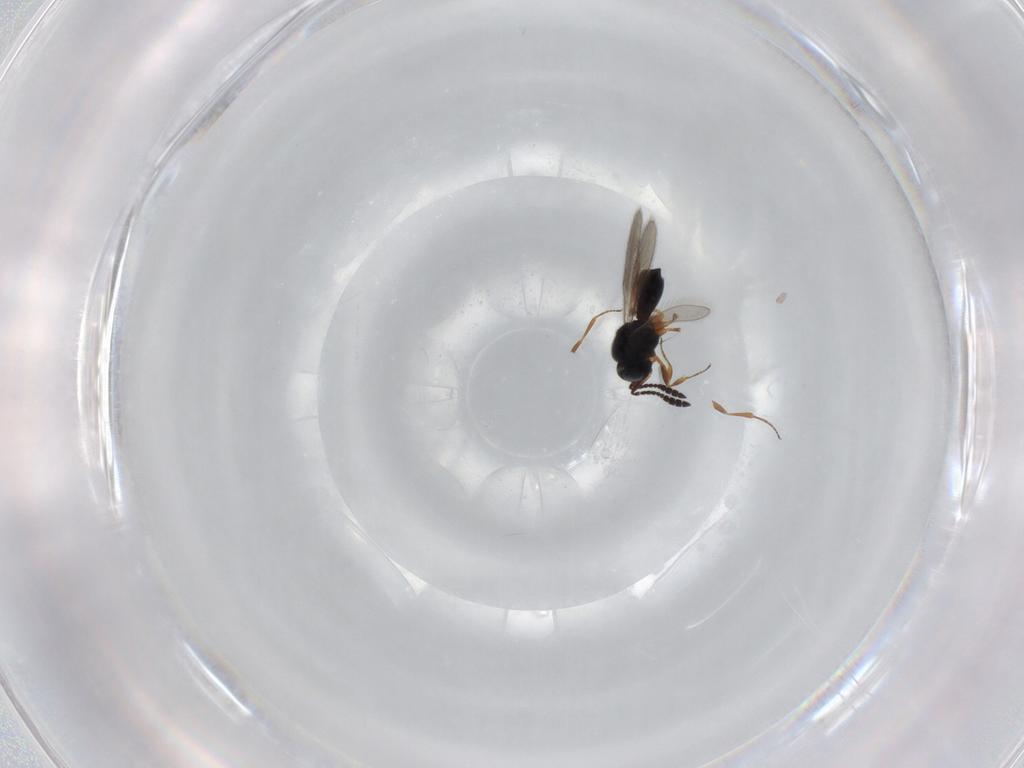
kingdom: Animalia
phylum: Arthropoda
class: Insecta
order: Hymenoptera
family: Scelionidae
